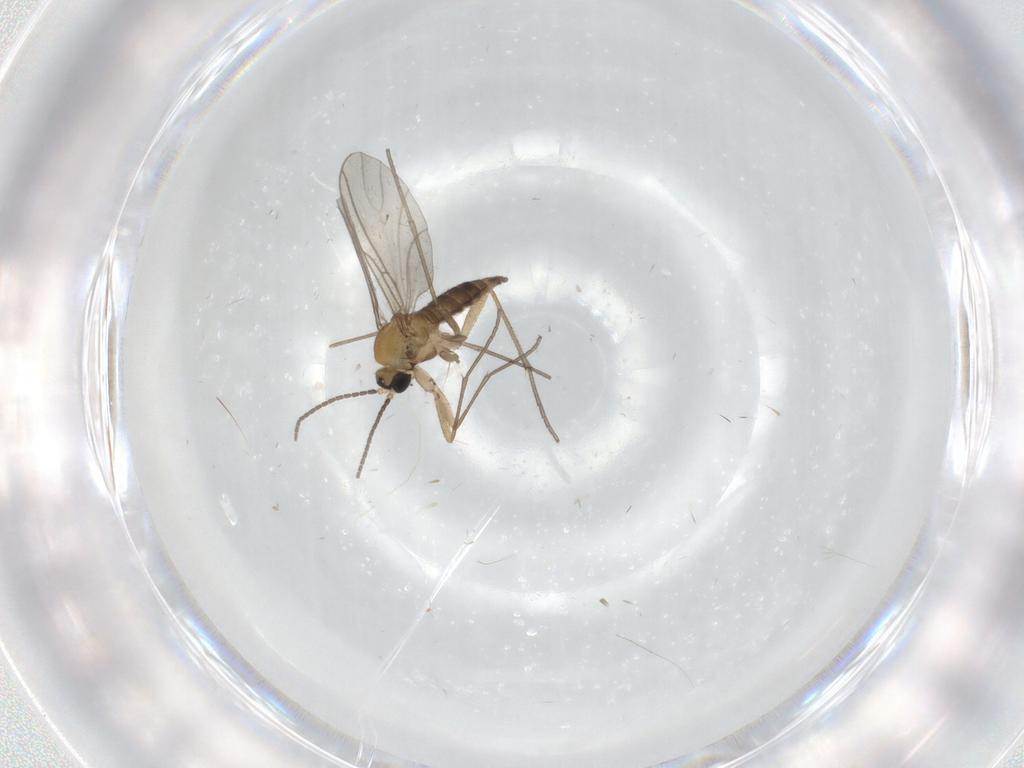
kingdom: Animalia
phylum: Arthropoda
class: Insecta
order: Diptera
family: Sciaridae
